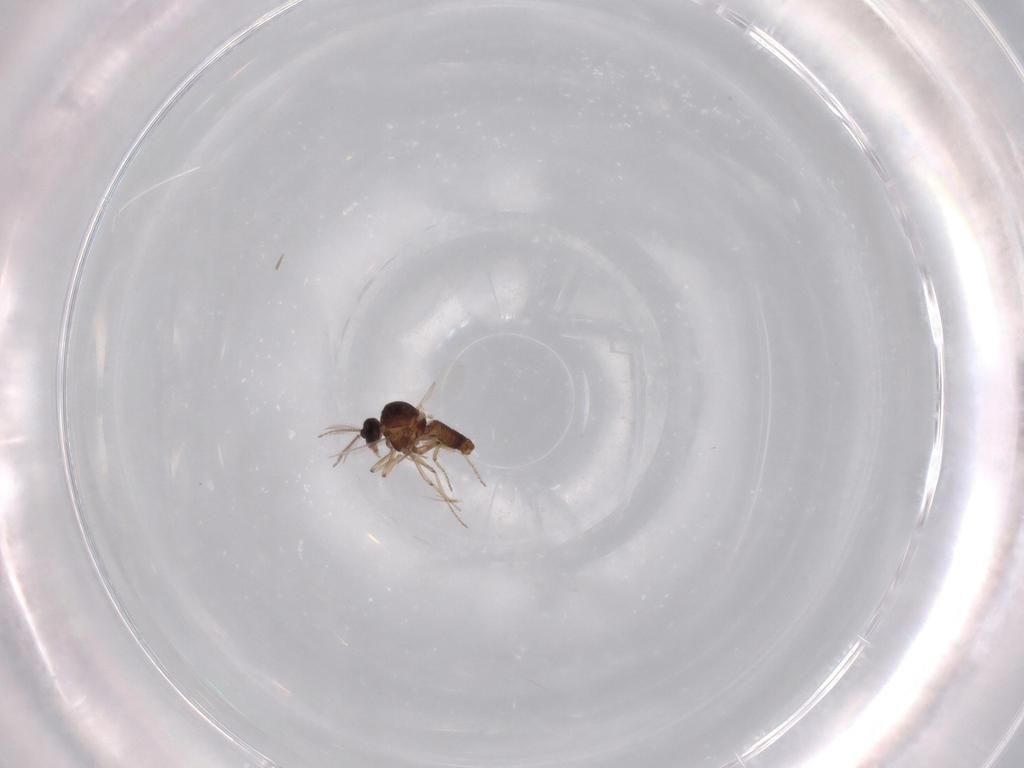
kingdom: Animalia
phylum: Arthropoda
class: Insecta
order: Diptera
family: Ceratopogonidae
